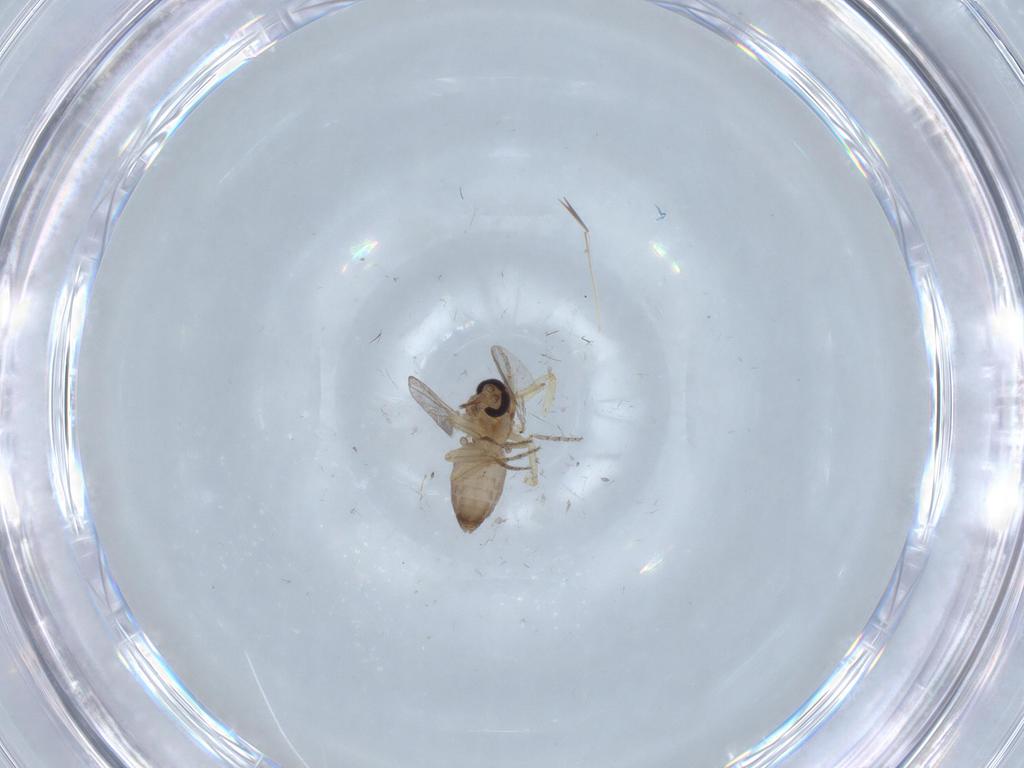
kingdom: Animalia
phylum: Arthropoda
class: Insecta
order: Diptera
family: Ceratopogonidae
